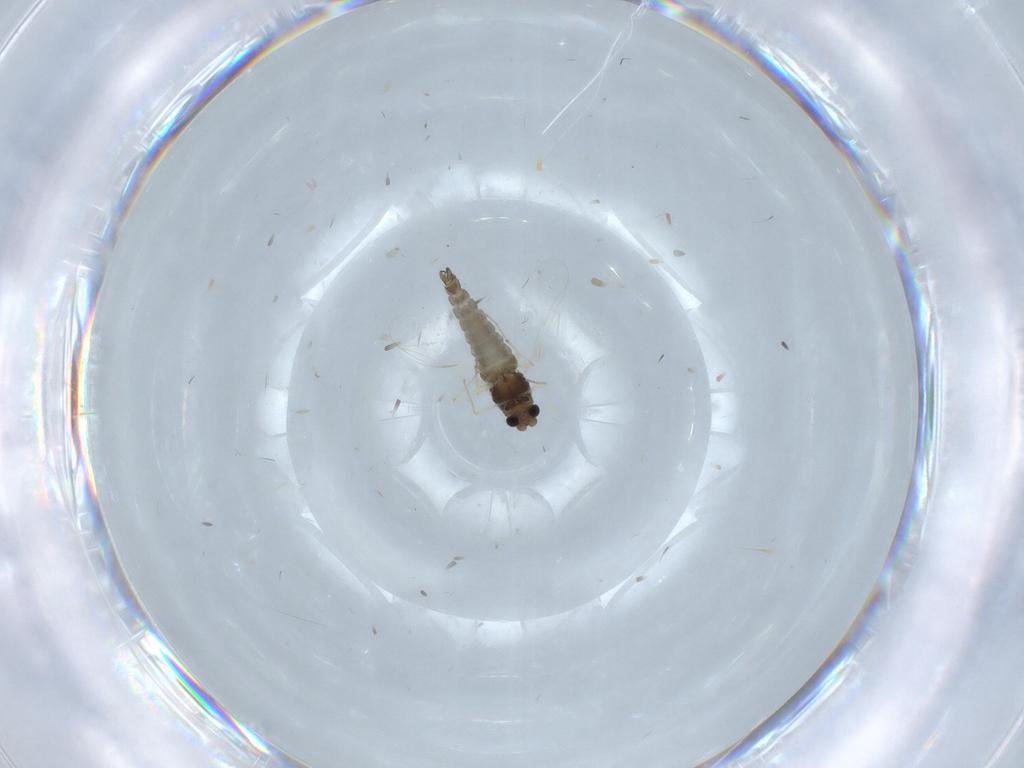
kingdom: Animalia
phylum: Arthropoda
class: Insecta
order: Diptera
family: Chironomidae
